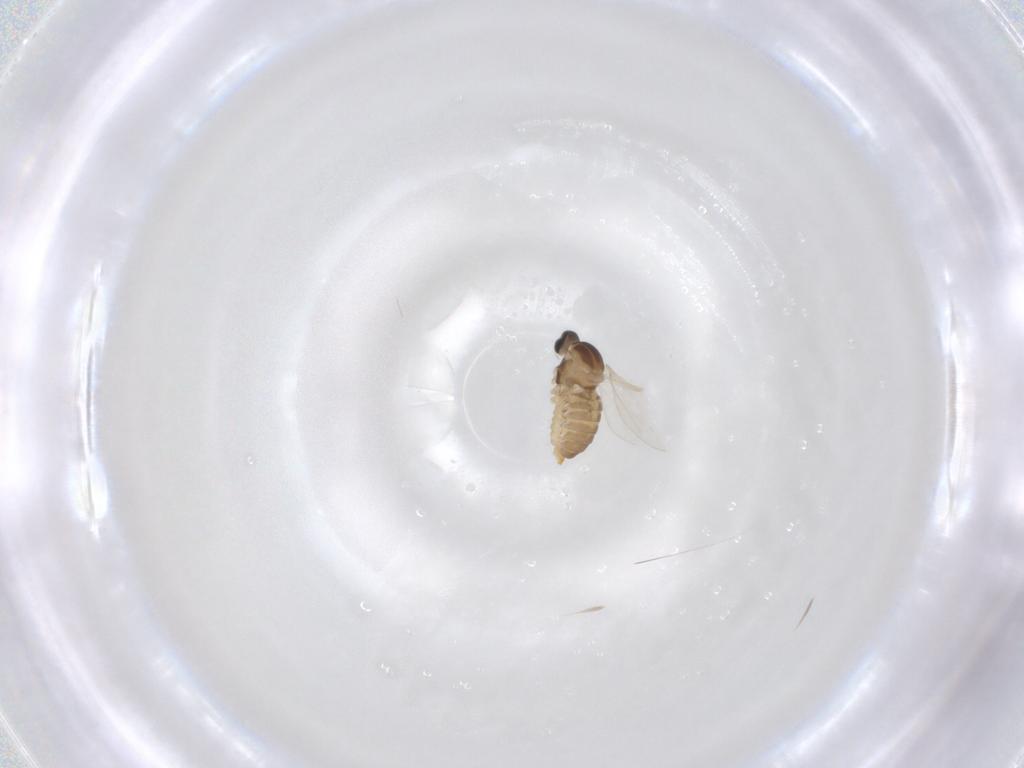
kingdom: Animalia
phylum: Arthropoda
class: Insecta
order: Diptera
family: Cecidomyiidae
